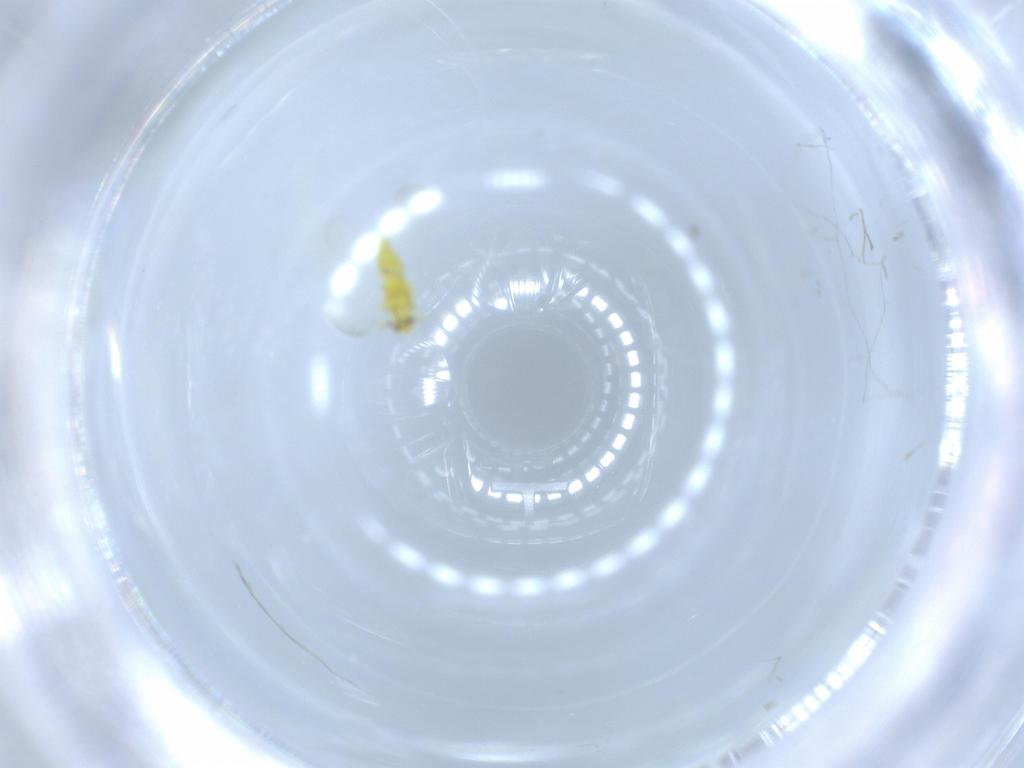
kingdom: Animalia
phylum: Arthropoda
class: Insecta
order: Hemiptera
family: Aleyrodidae
